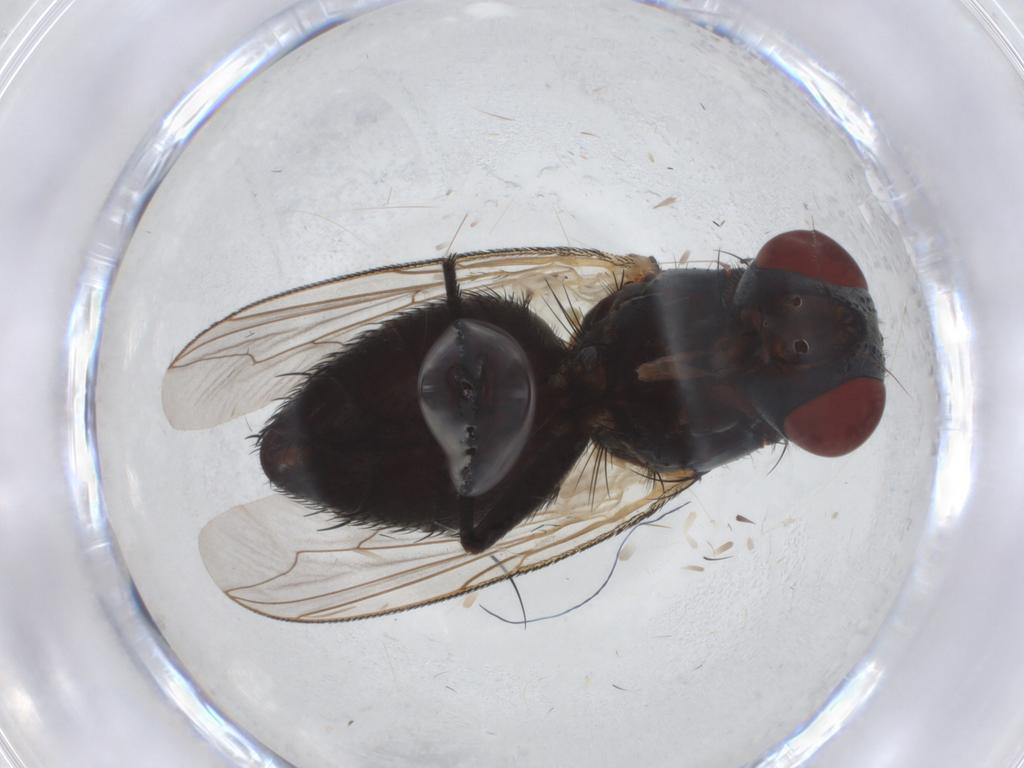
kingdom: Animalia
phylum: Arthropoda
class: Insecta
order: Diptera
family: Sarcophagidae
